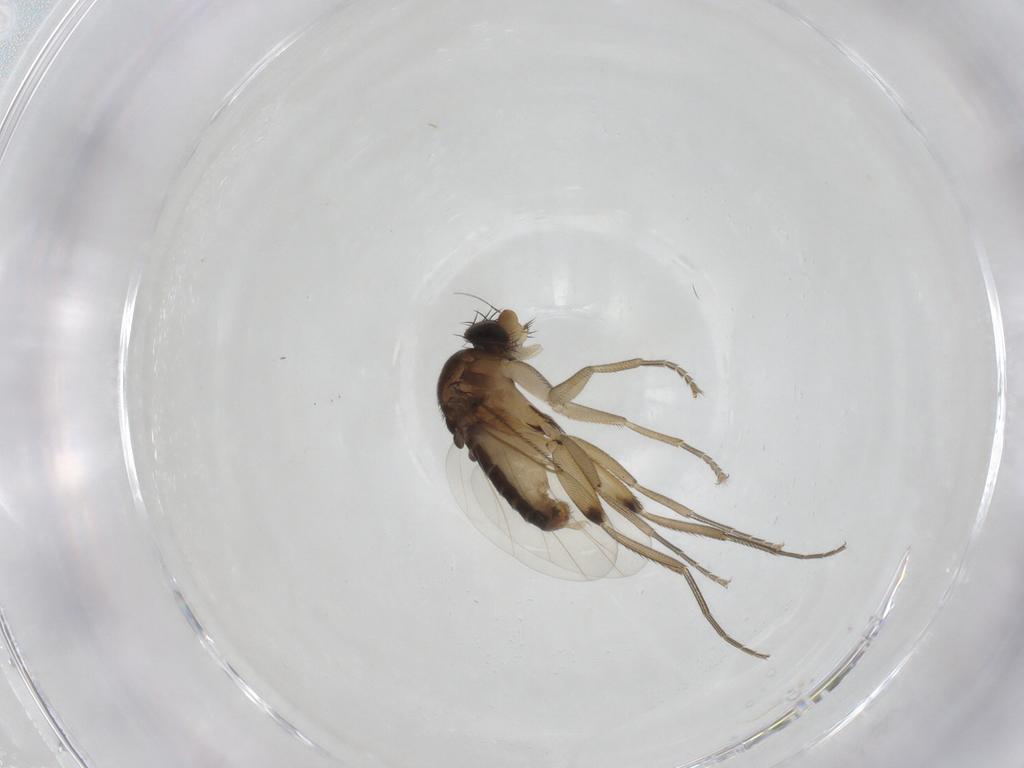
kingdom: Animalia
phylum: Arthropoda
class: Insecta
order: Diptera
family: Phoridae
